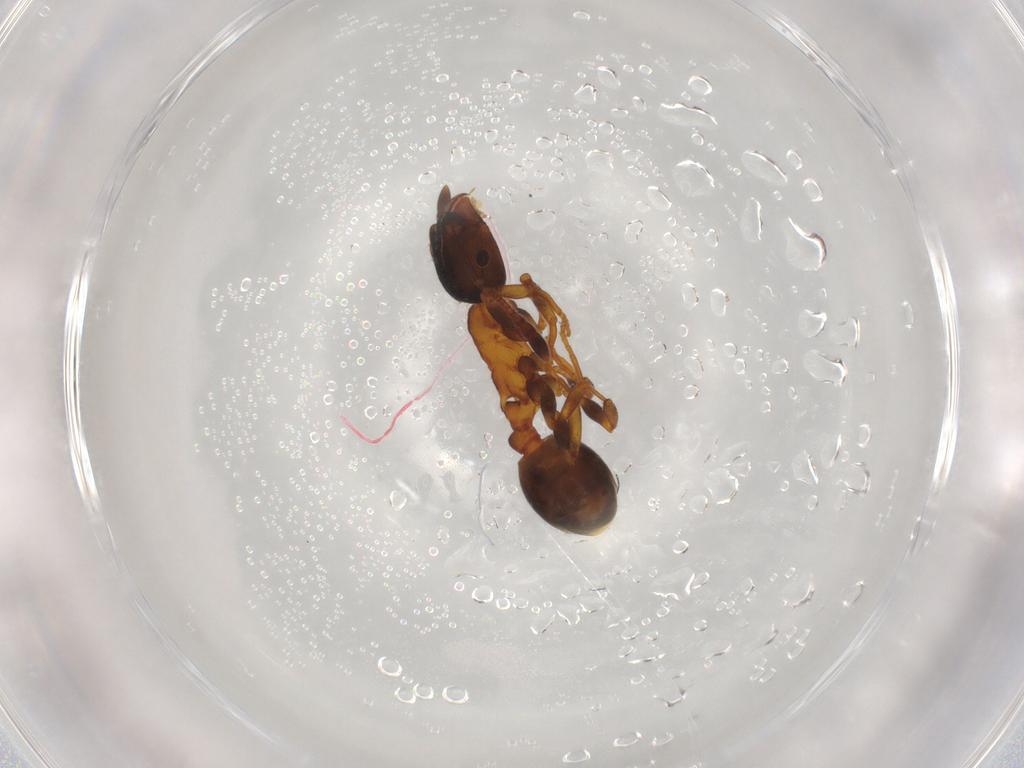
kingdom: Animalia
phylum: Arthropoda
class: Insecta
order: Hymenoptera
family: Formicidae
